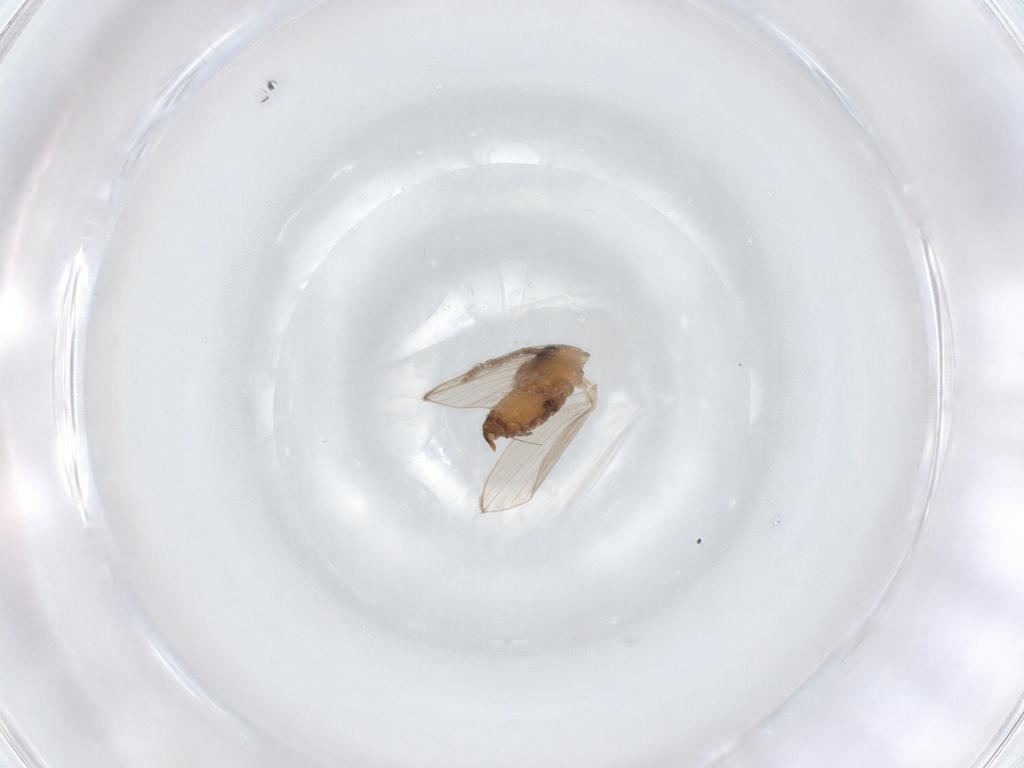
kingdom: Animalia
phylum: Arthropoda
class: Insecta
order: Diptera
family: Psychodidae
